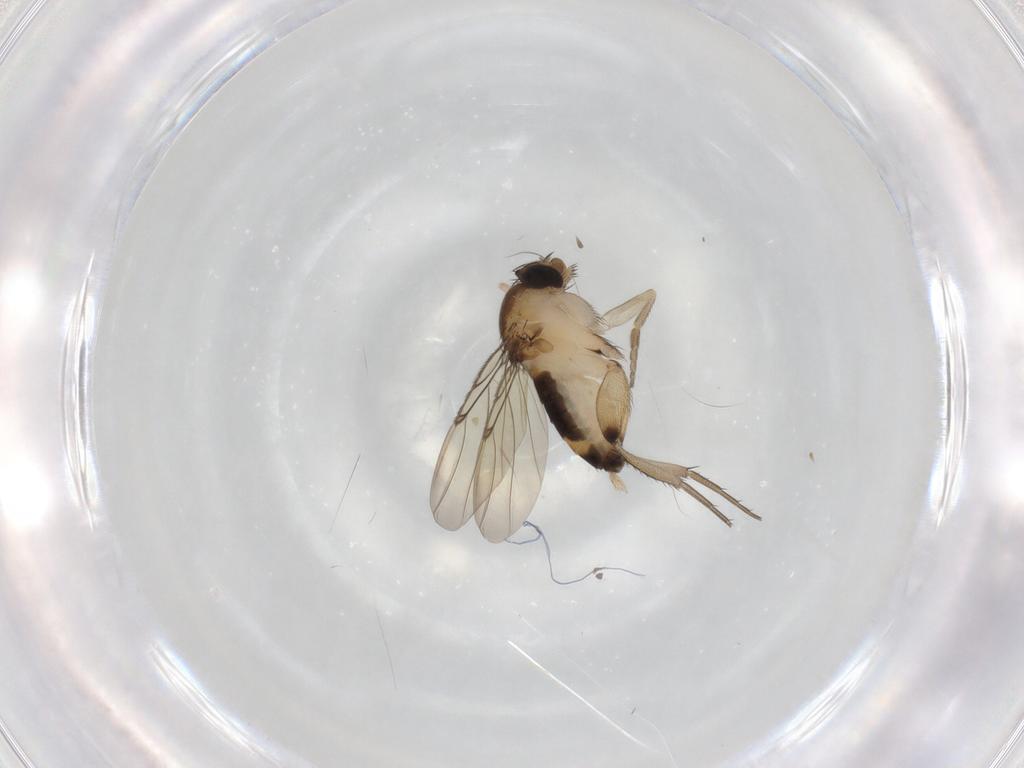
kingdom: Animalia
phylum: Arthropoda
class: Insecta
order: Diptera
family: Phoridae
